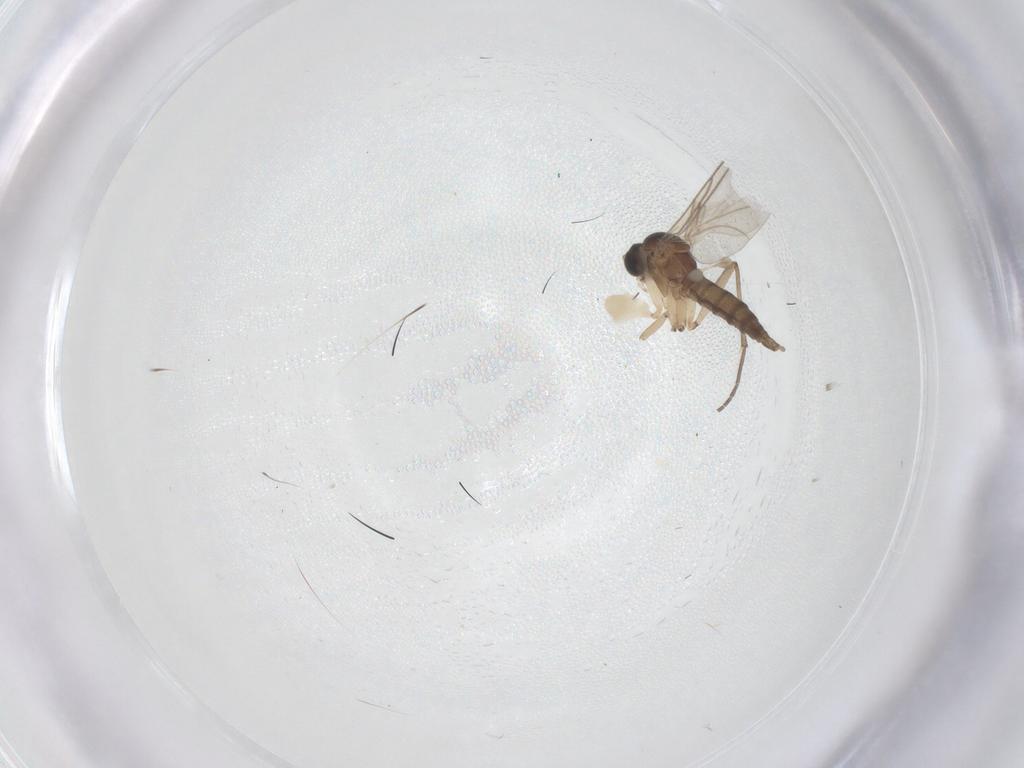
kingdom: Animalia
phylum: Arthropoda
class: Insecta
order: Diptera
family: Sciaridae
